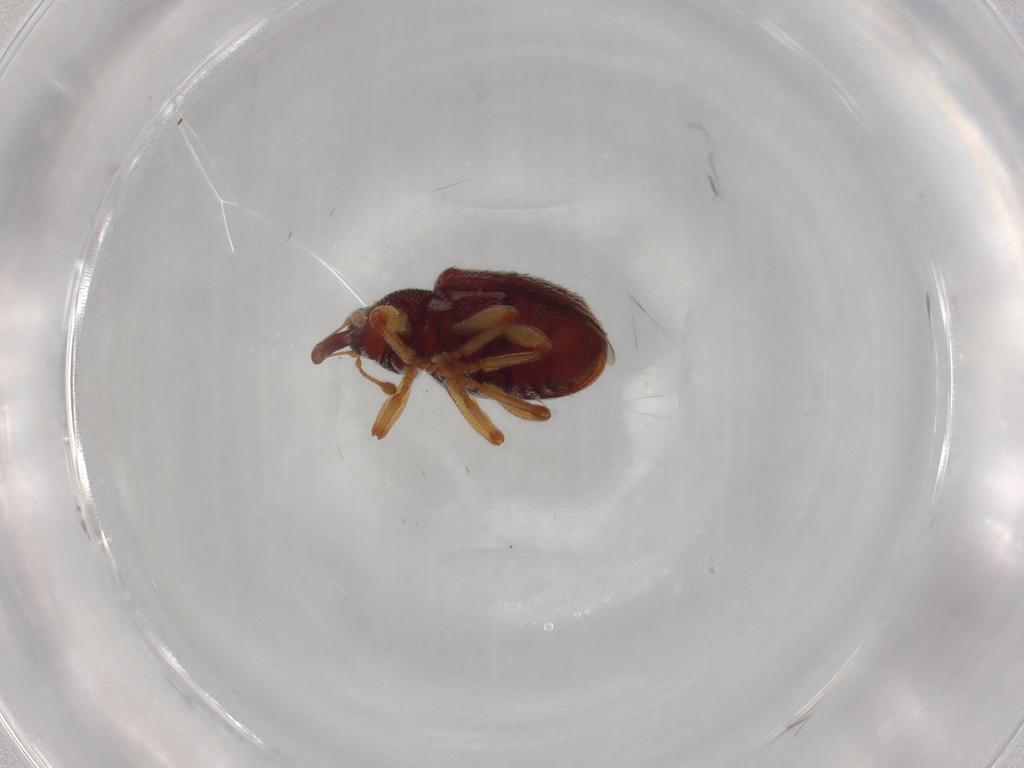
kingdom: Animalia
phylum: Arthropoda
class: Insecta
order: Coleoptera
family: Curculionidae
